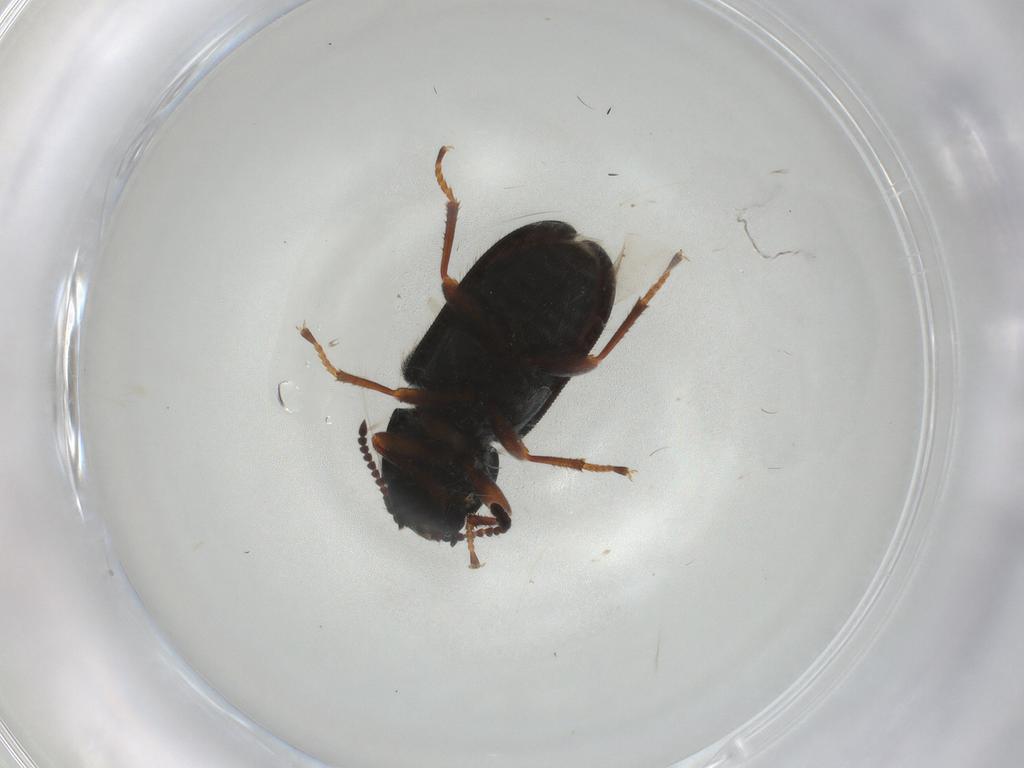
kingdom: Animalia
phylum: Arthropoda
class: Insecta
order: Coleoptera
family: Melyridae
